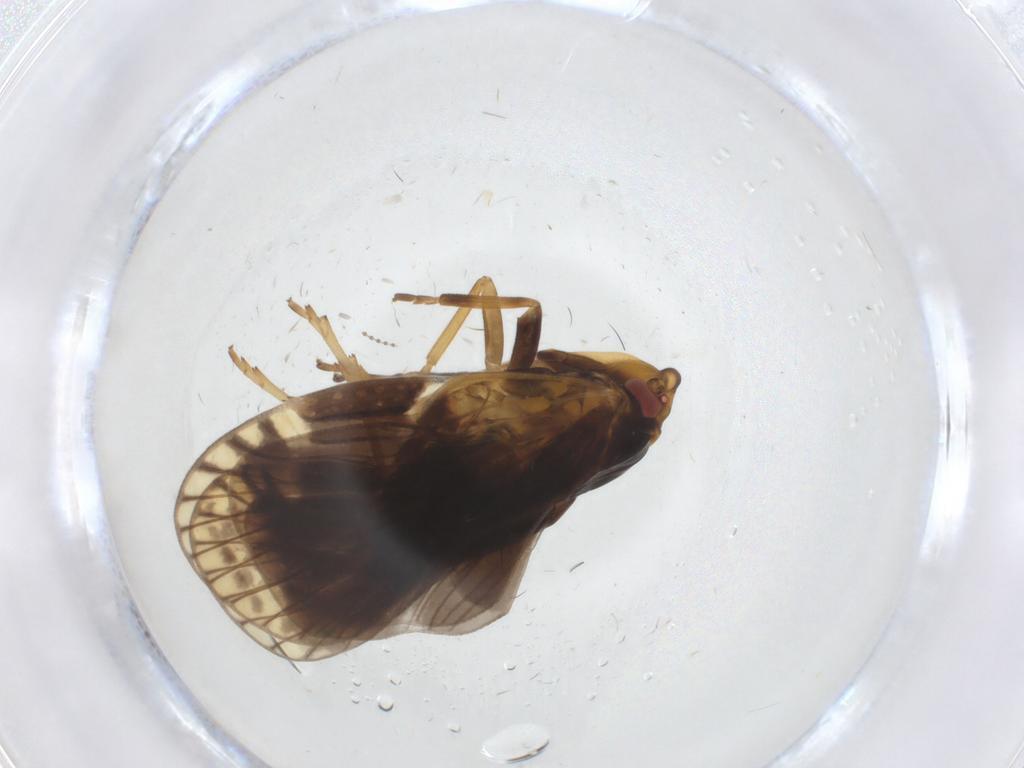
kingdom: Animalia
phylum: Arthropoda
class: Insecta
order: Hemiptera
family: Cixiidae
